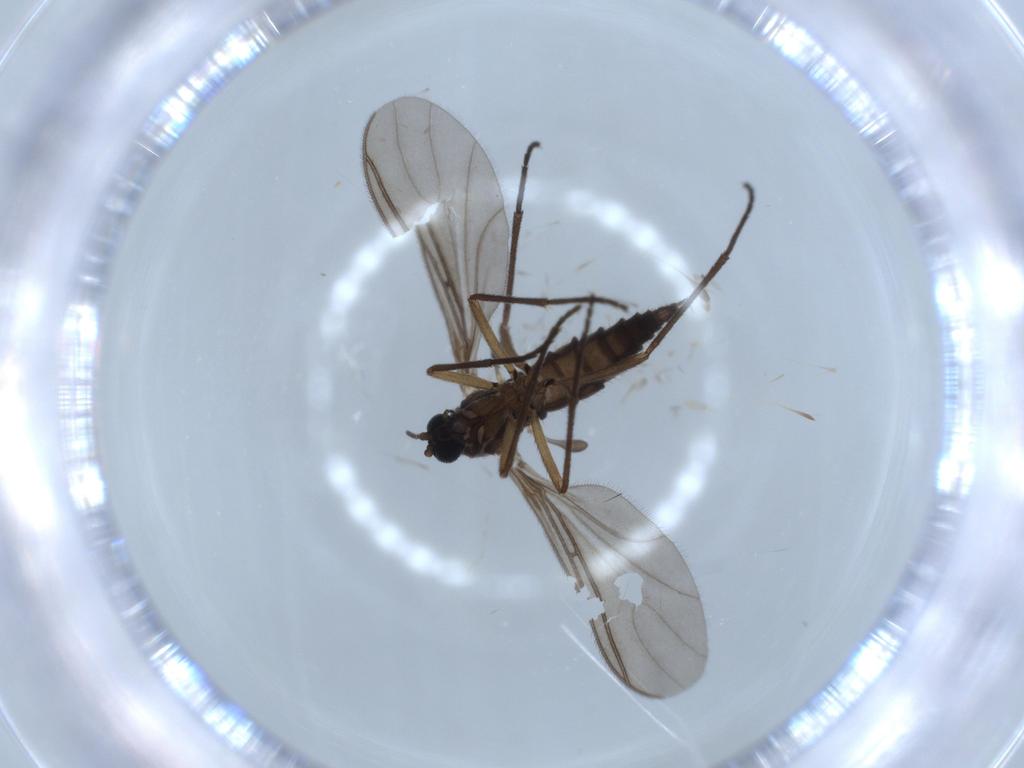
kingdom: Animalia
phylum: Arthropoda
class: Insecta
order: Diptera
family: Sciaridae
